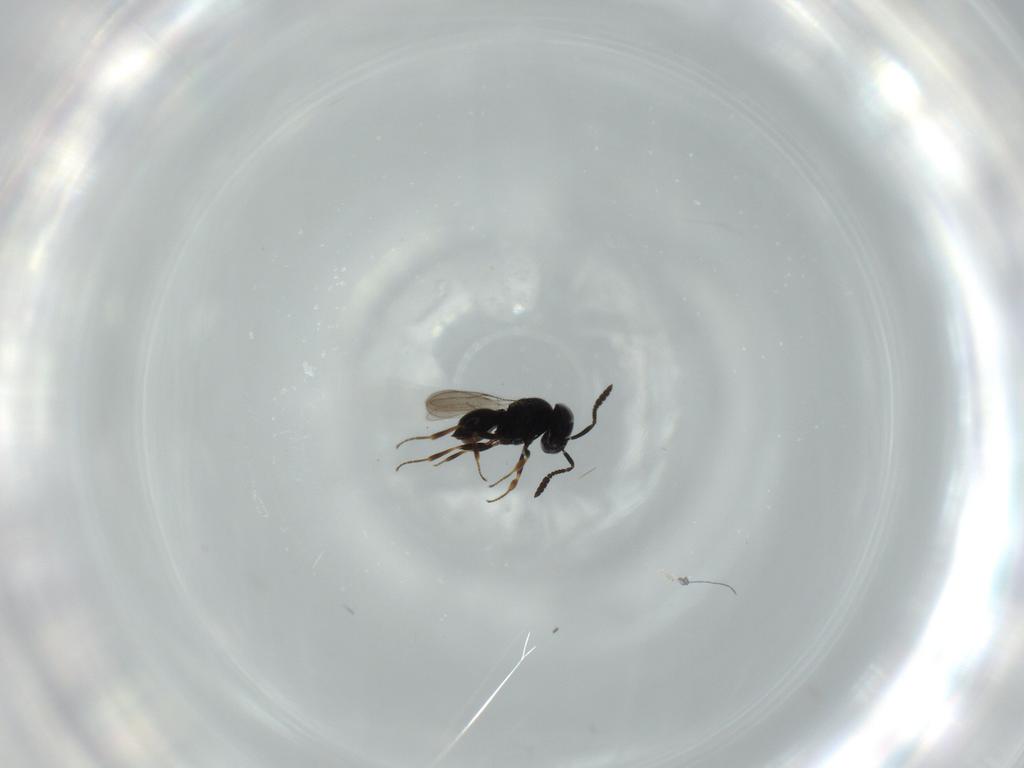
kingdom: Animalia
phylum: Arthropoda
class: Insecta
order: Hymenoptera
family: Scelionidae
